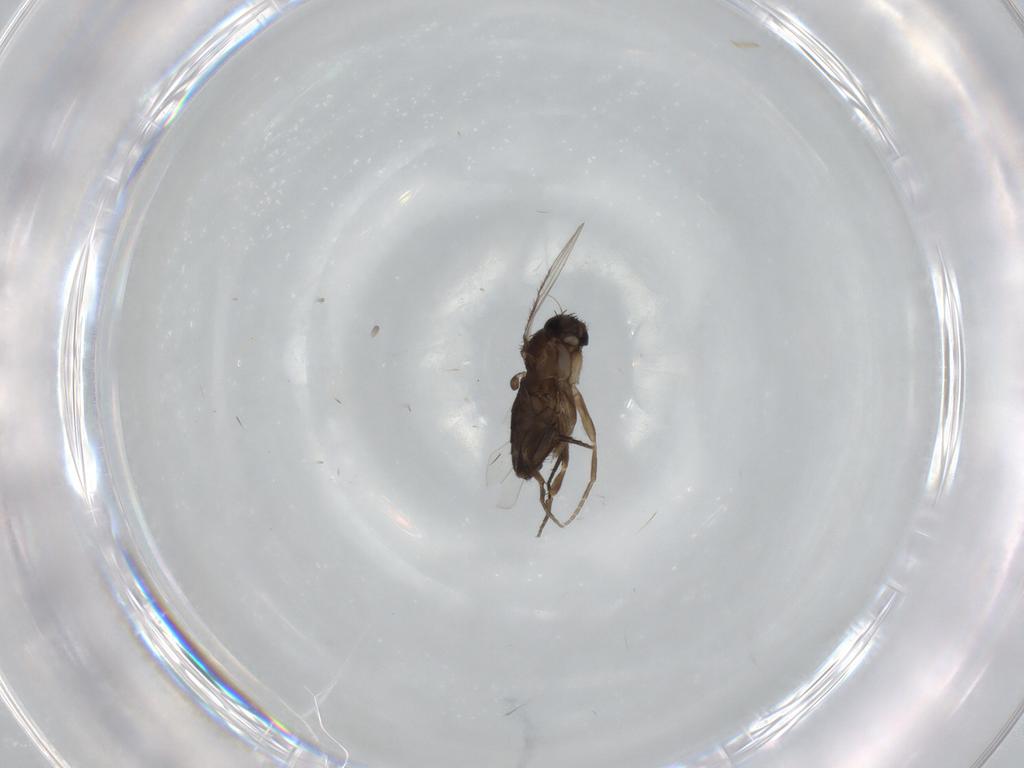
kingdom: Animalia
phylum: Arthropoda
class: Insecta
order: Diptera
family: Phoridae
